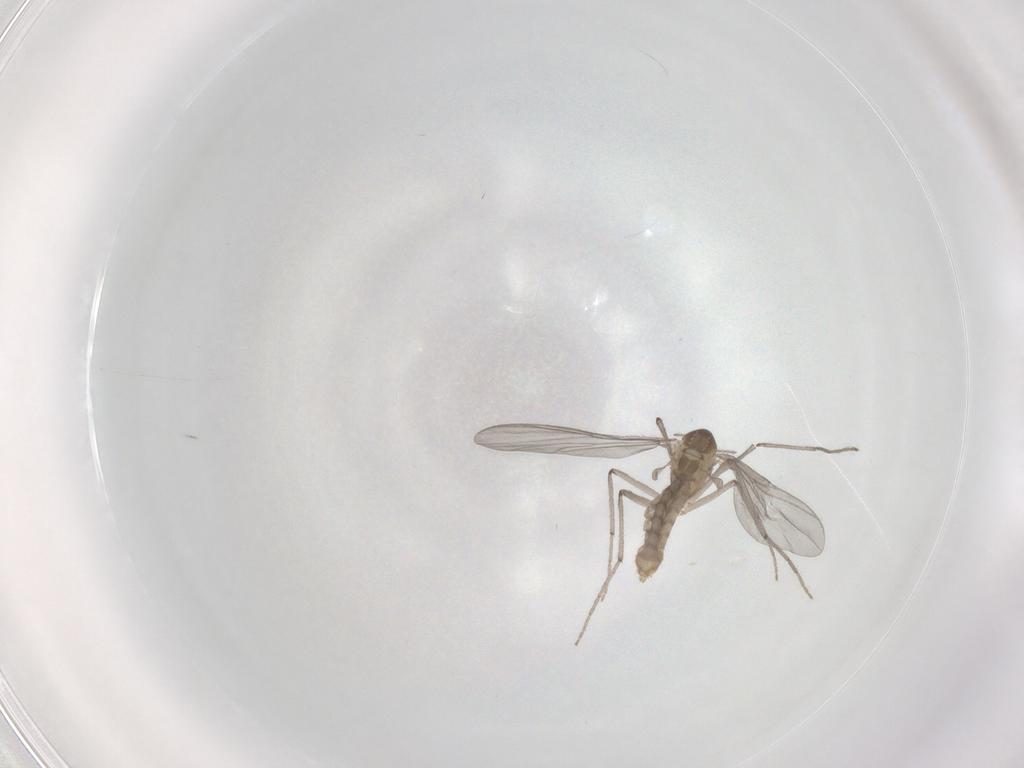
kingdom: Animalia
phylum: Arthropoda
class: Insecta
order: Diptera
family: Chironomidae
